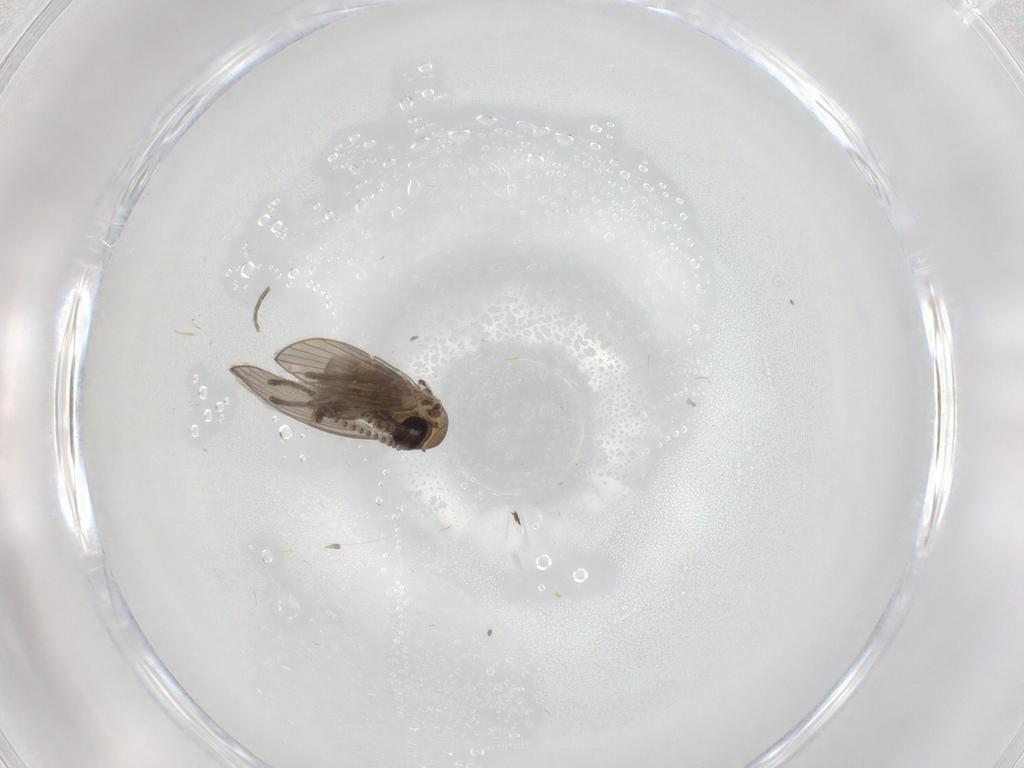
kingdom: Animalia
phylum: Arthropoda
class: Insecta
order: Diptera
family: Psychodidae
